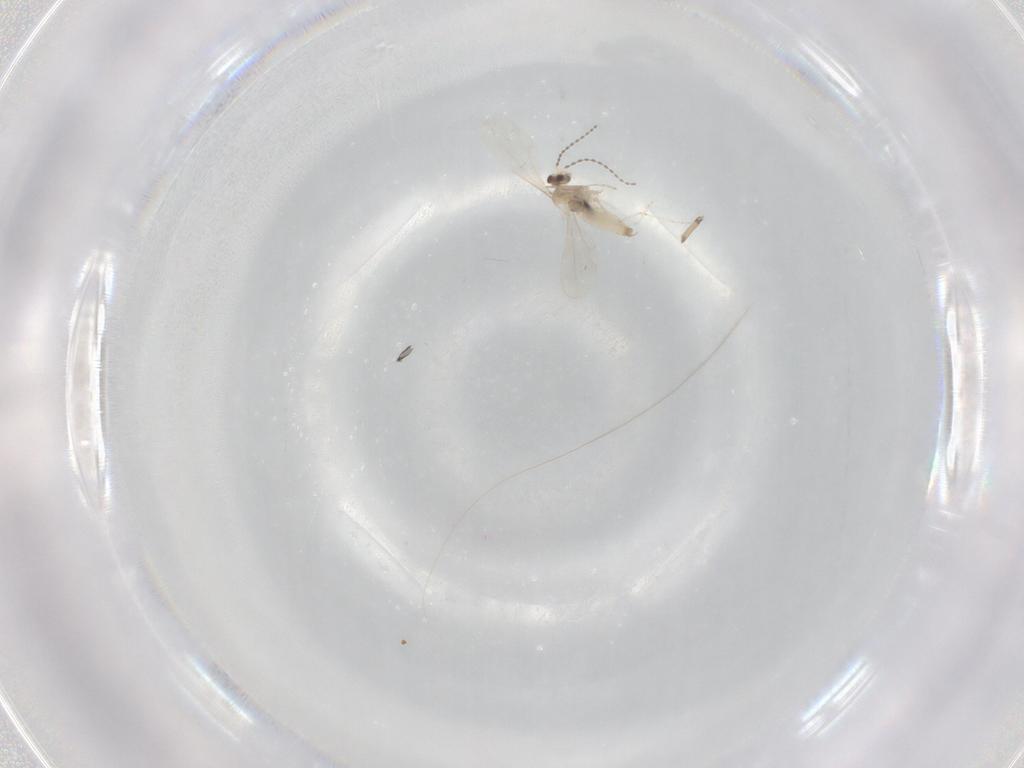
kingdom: Animalia
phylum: Arthropoda
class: Insecta
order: Diptera
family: Cecidomyiidae
